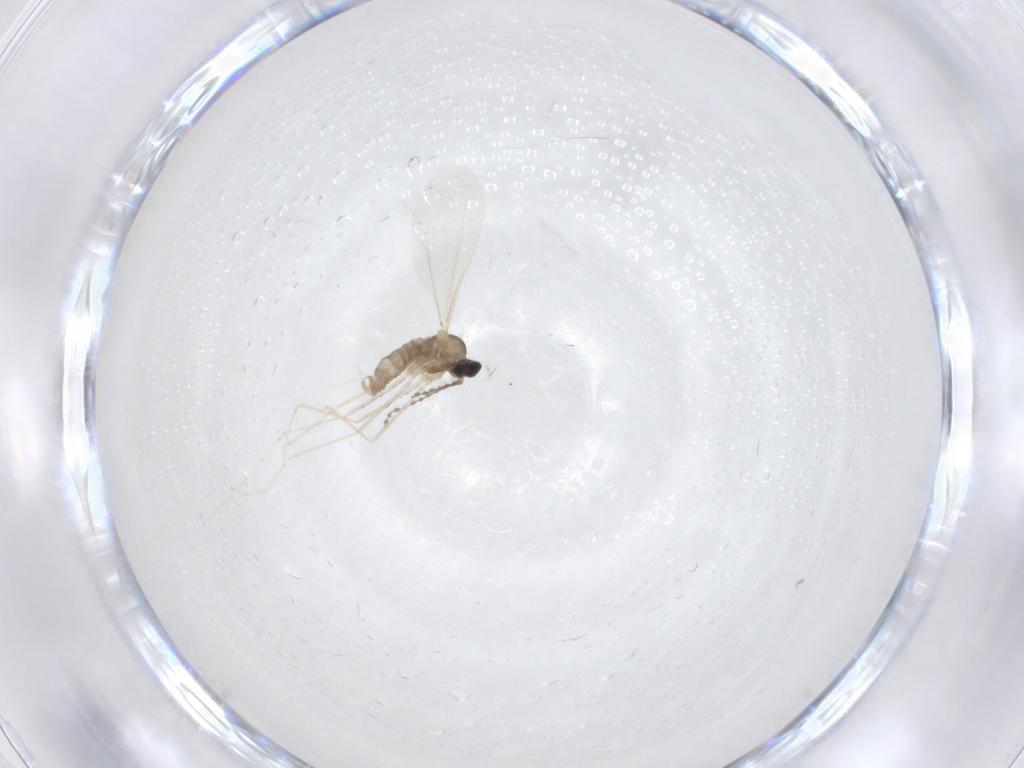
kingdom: Animalia
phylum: Arthropoda
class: Insecta
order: Diptera
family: Cecidomyiidae
